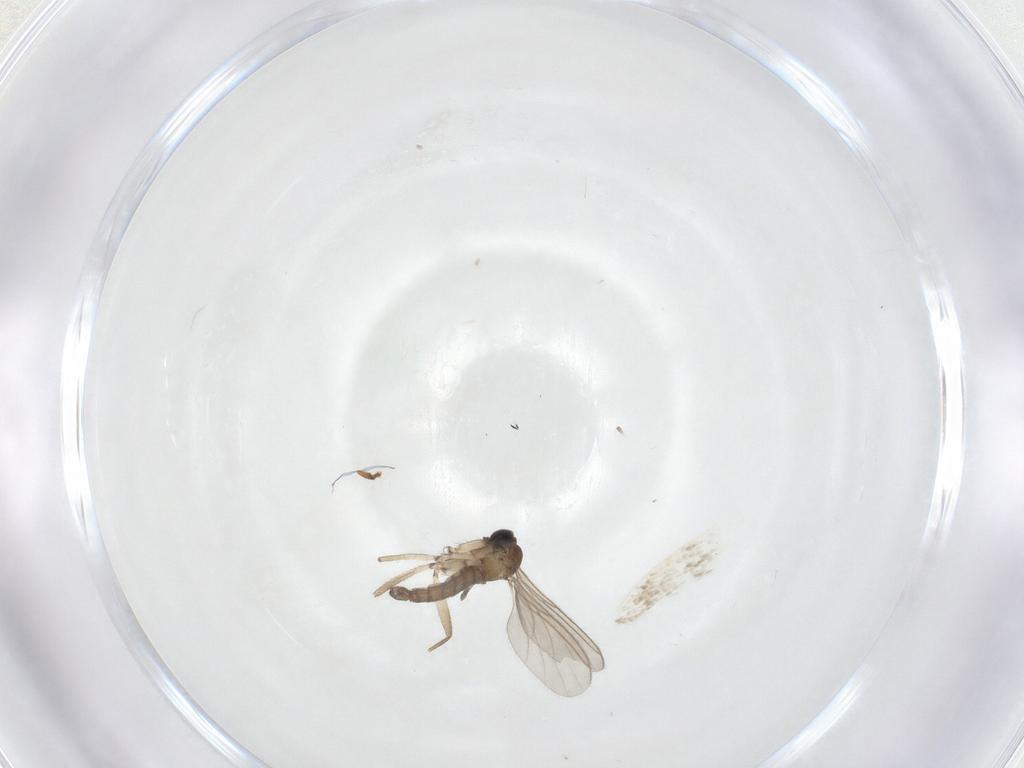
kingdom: Animalia
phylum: Arthropoda
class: Insecta
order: Diptera
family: Sciaridae
